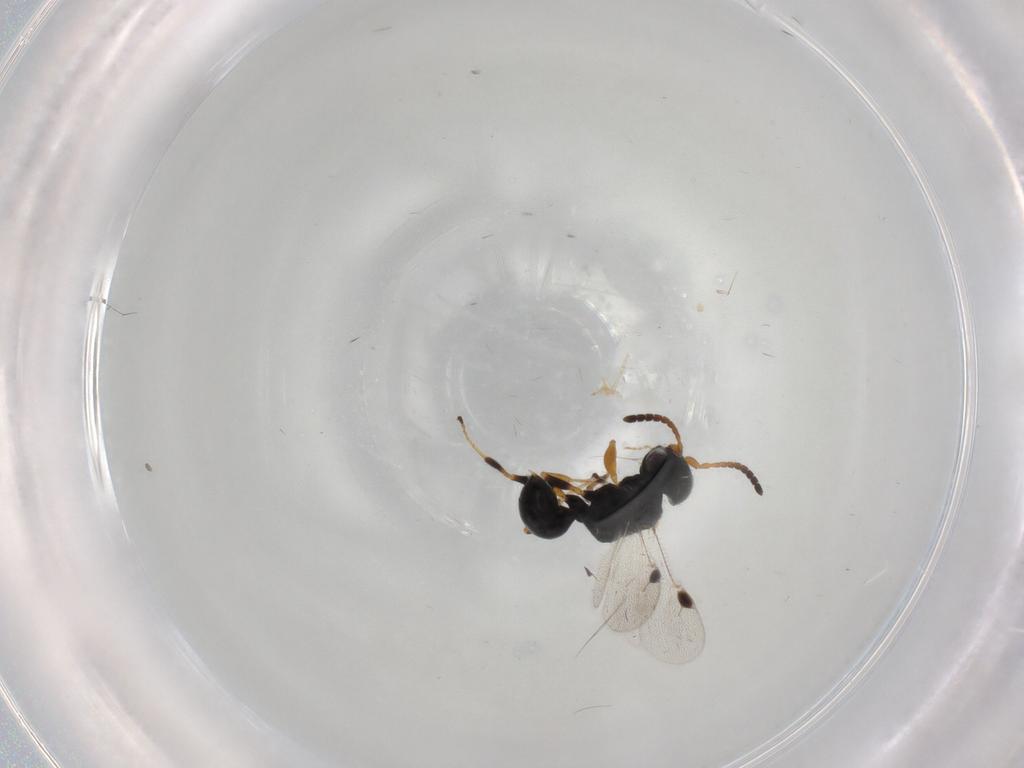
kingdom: Animalia
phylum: Arthropoda
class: Insecta
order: Hymenoptera
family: Dryinidae
